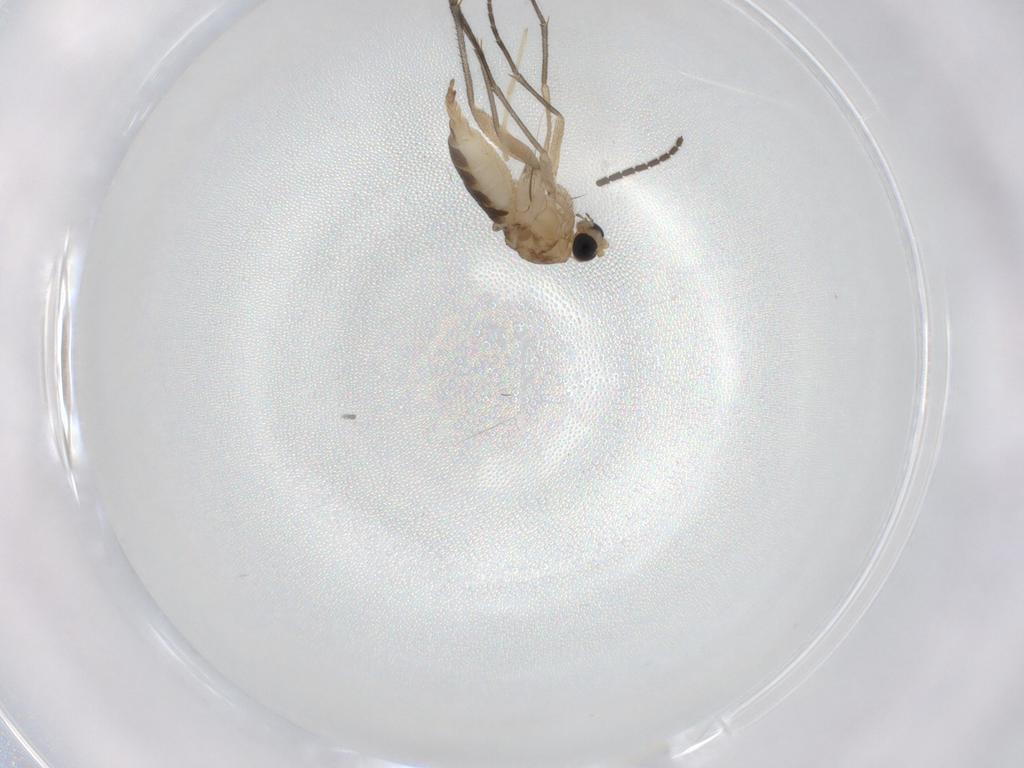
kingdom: Animalia
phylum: Arthropoda
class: Insecta
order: Diptera
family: Sciaridae
